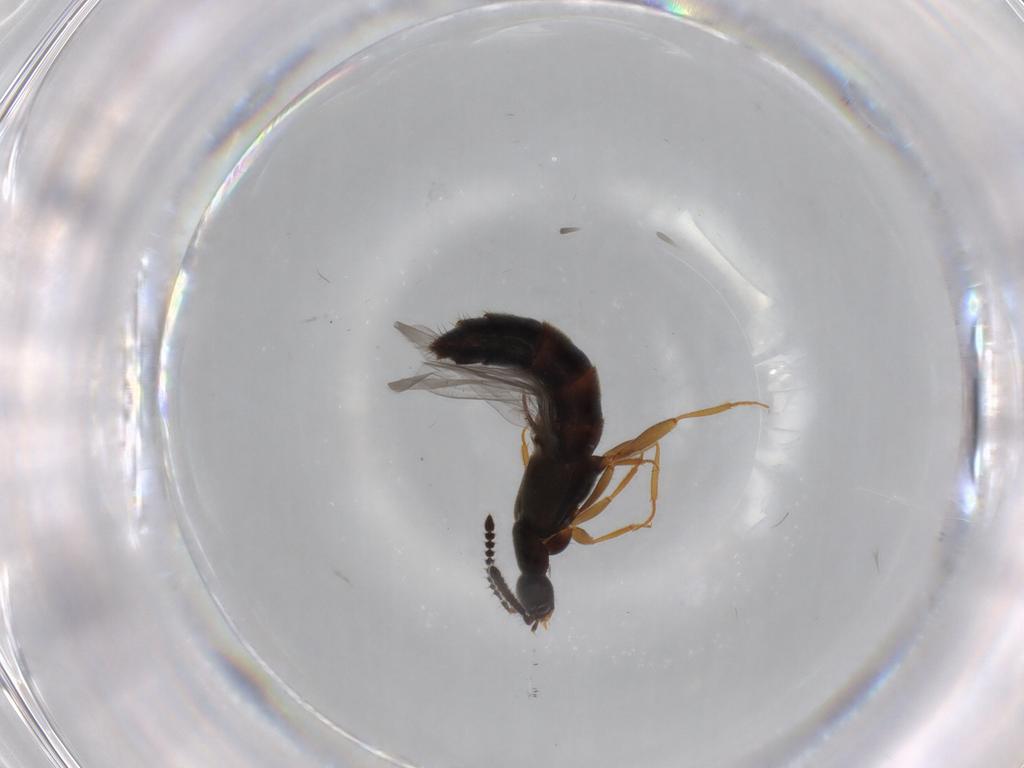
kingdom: Animalia
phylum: Arthropoda
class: Insecta
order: Coleoptera
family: Staphylinidae
